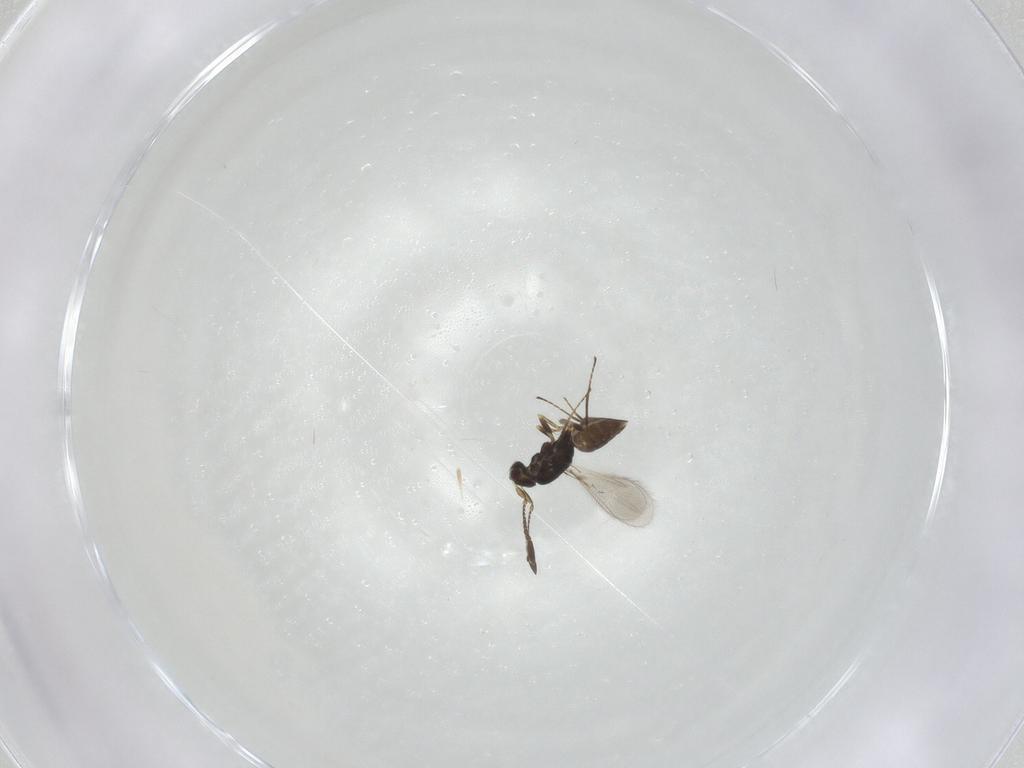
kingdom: Animalia
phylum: Arthropoda
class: Insecta
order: Hymenoptera
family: Mymaridae
